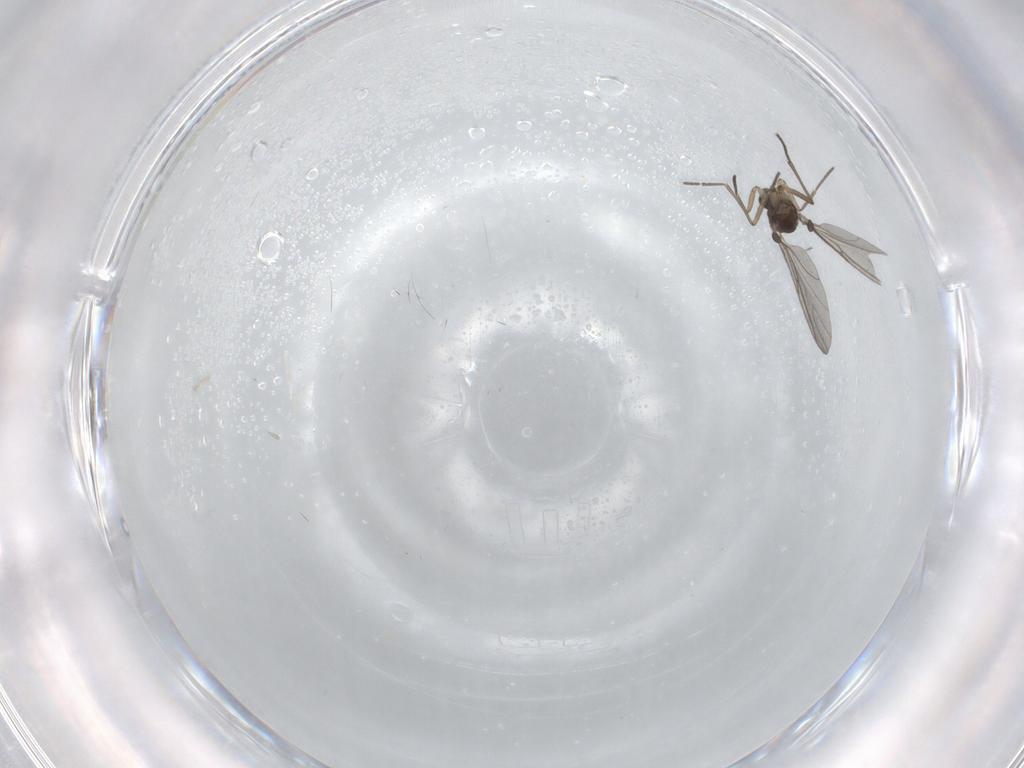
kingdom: Animalia
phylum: Arthropoda
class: Insecta
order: Diptera
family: Sciaridae
